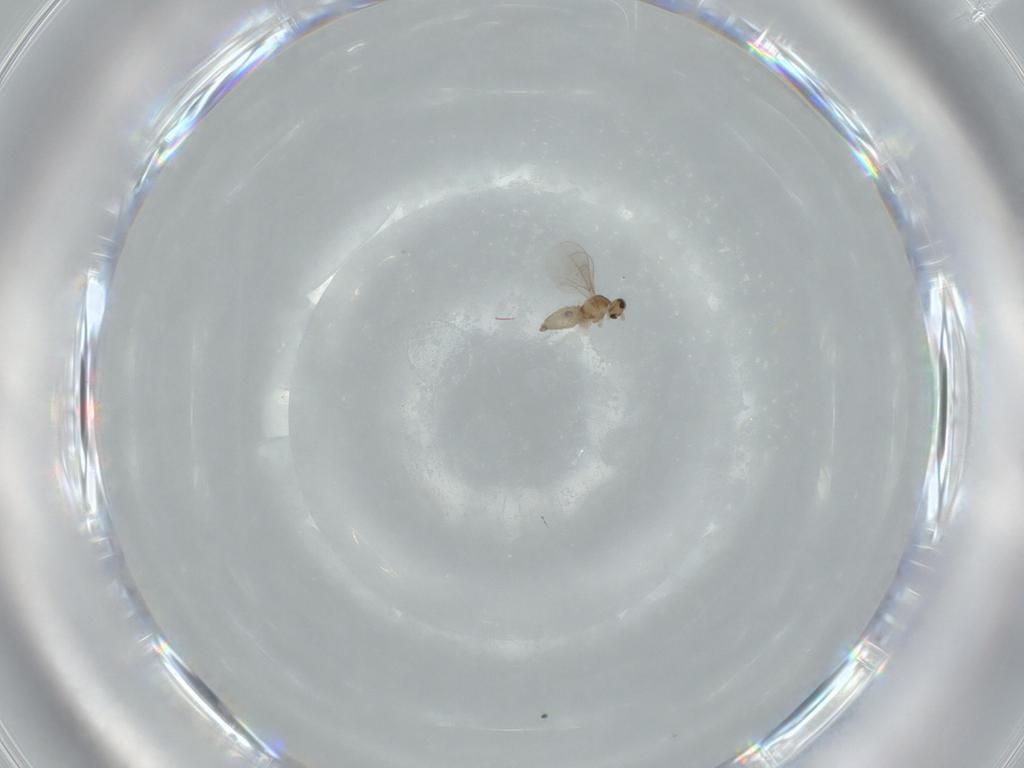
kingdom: Animalia
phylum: Arthropoda
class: Insecta
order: Diptera
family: Cecidomyiidae
